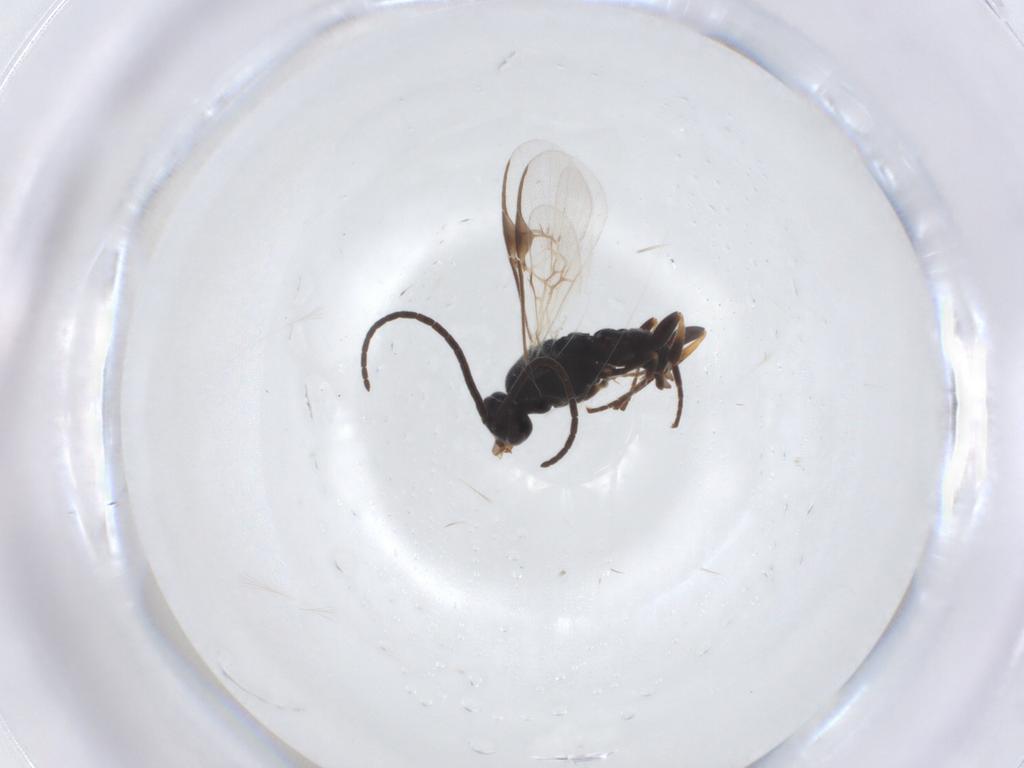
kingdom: Animalia
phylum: Arthropoda
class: Insecta
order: Hymenoptera
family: Braconidae
